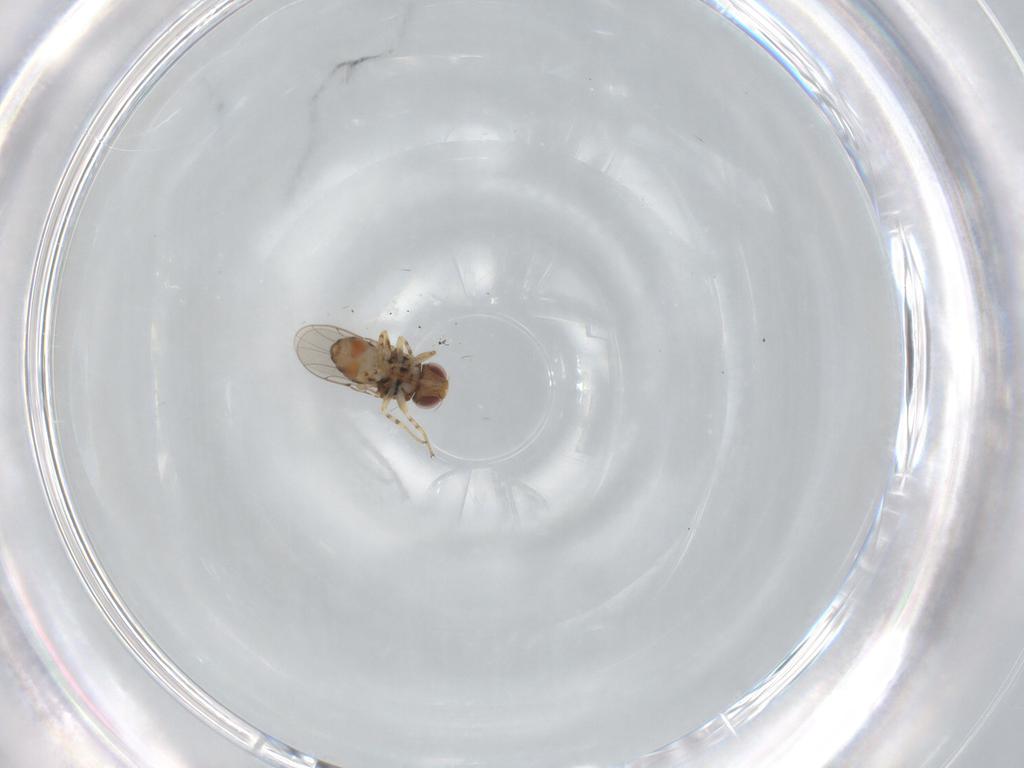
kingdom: Animalia
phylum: Arthropoda
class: Insecta
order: Diptera
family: Chloropidae
